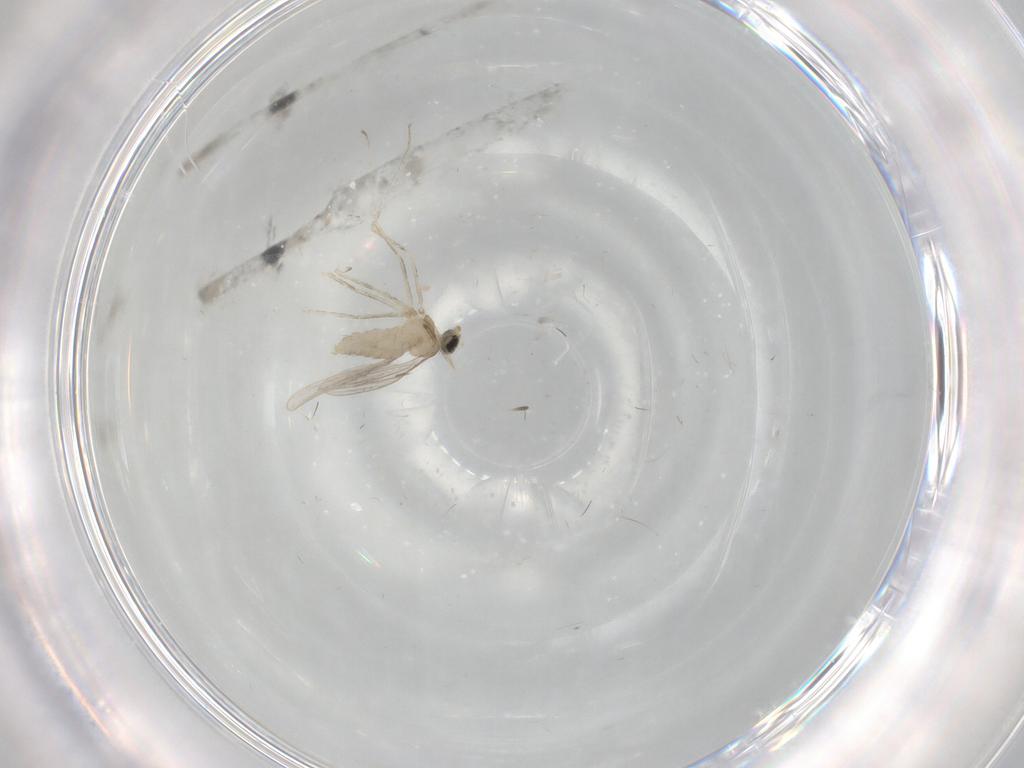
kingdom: Animalia
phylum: Arthropoda
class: Insecta
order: Diptera
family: Cecidomyiidae
